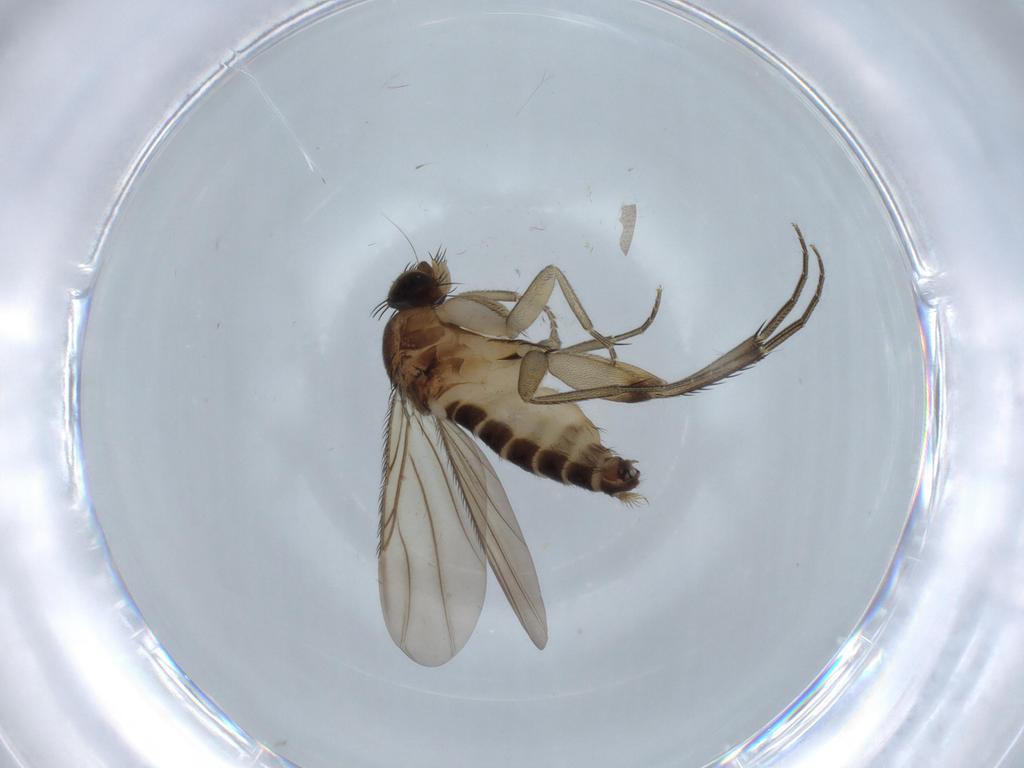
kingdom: Animalia
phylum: Arthropoda
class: Insecta
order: Diptera
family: Phoridae
